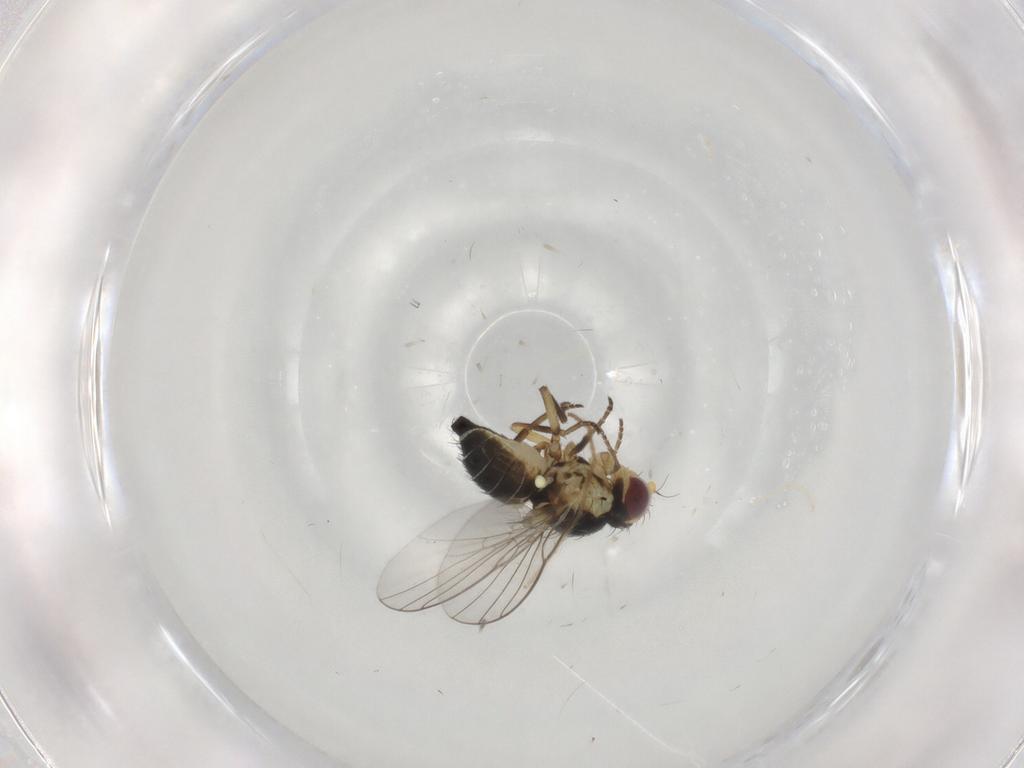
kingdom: Animalia
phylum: Arthropoda
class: Insecta
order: Diptera
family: Agromyzidae
